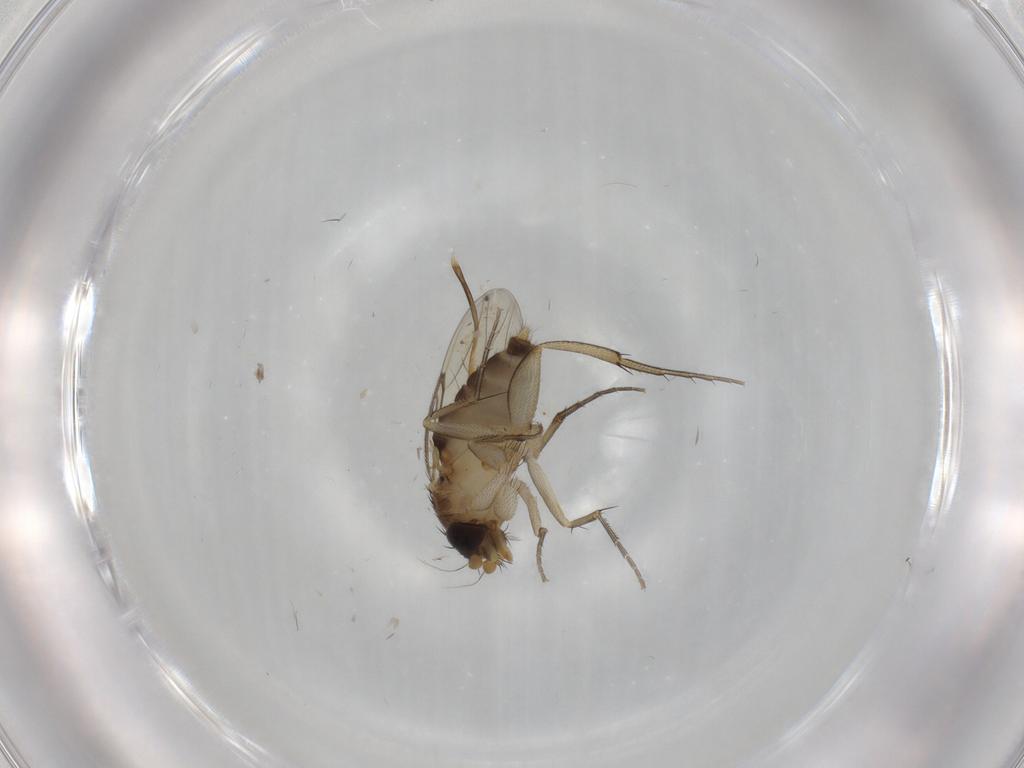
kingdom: Animalia
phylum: Arthropoda
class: Insecta
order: Diptera
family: Phoridae
